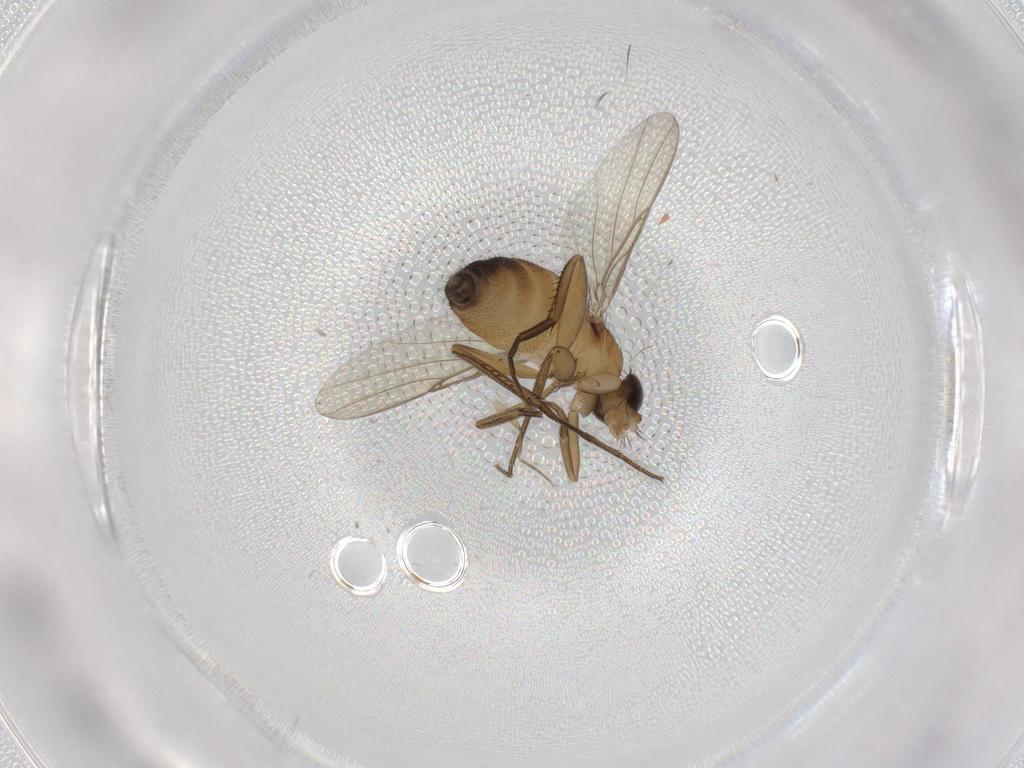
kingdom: Animalia
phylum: Arthropoda
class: Insecta
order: Diptera
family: Phoridae
